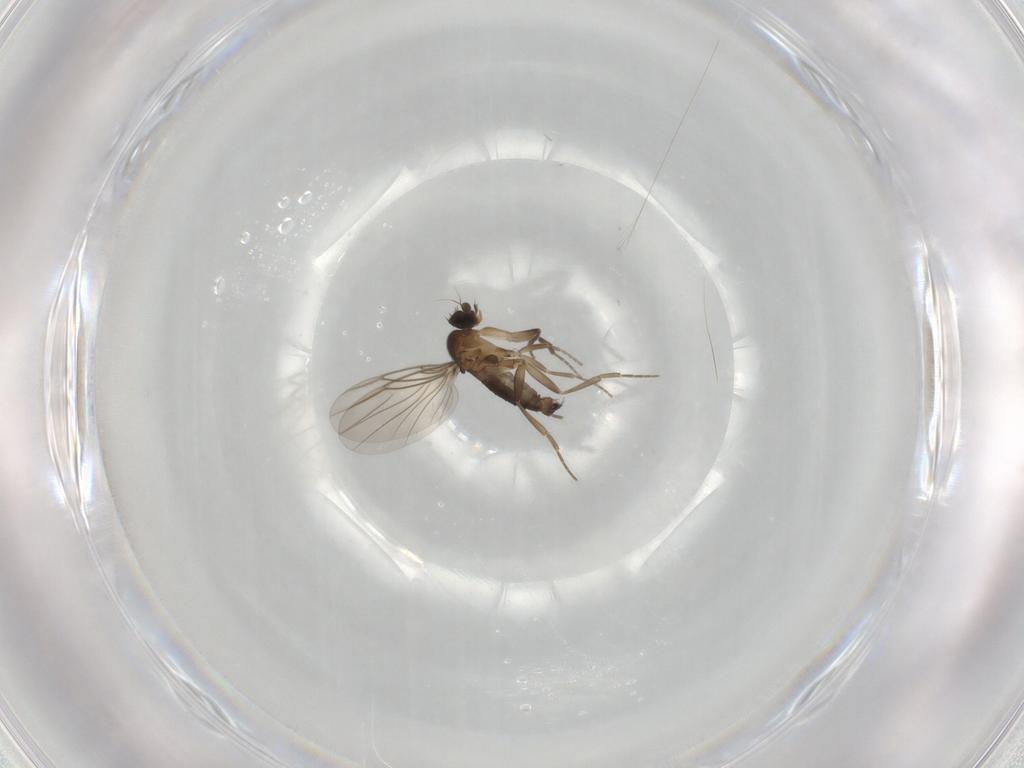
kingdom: Animalia
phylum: Arthropoda
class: Insecta
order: Diptera
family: Phoridae
